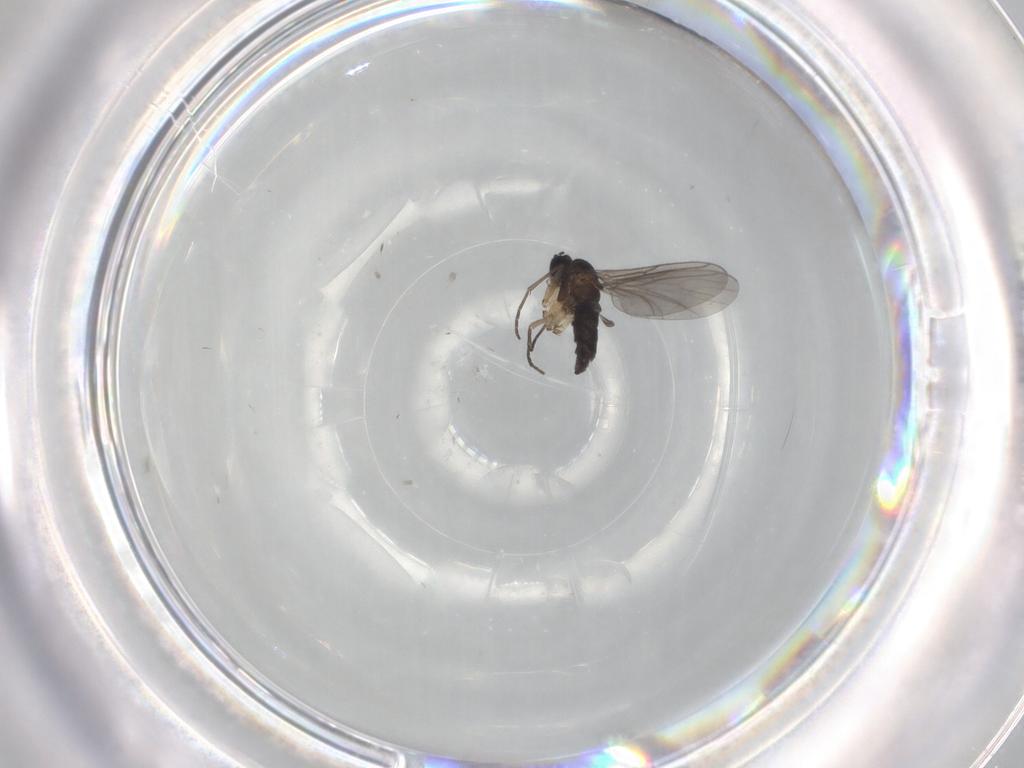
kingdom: Animalia
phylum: Arthropoda
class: Insecta
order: Diptera
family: Sciaridae
